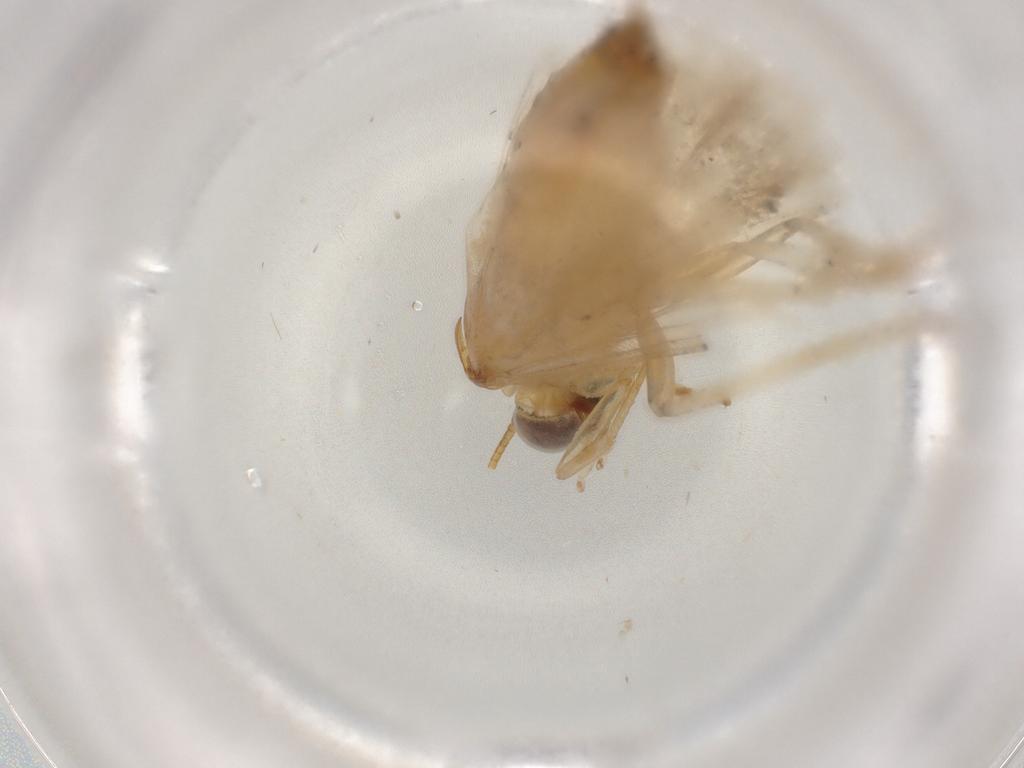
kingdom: Animalia
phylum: Arthropoda
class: Insecta
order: Lepidoptera
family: Noctuidae
